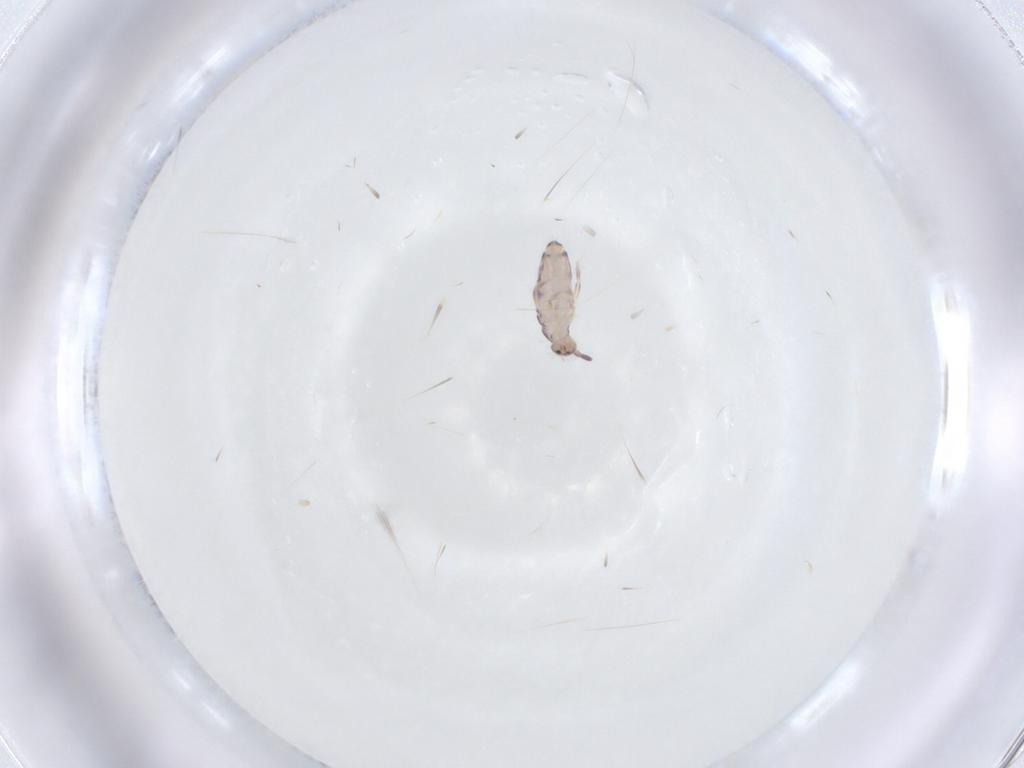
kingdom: Animalia
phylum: Arthropoda
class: Collembola
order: Entomobryomorpha
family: Entomobryidae
